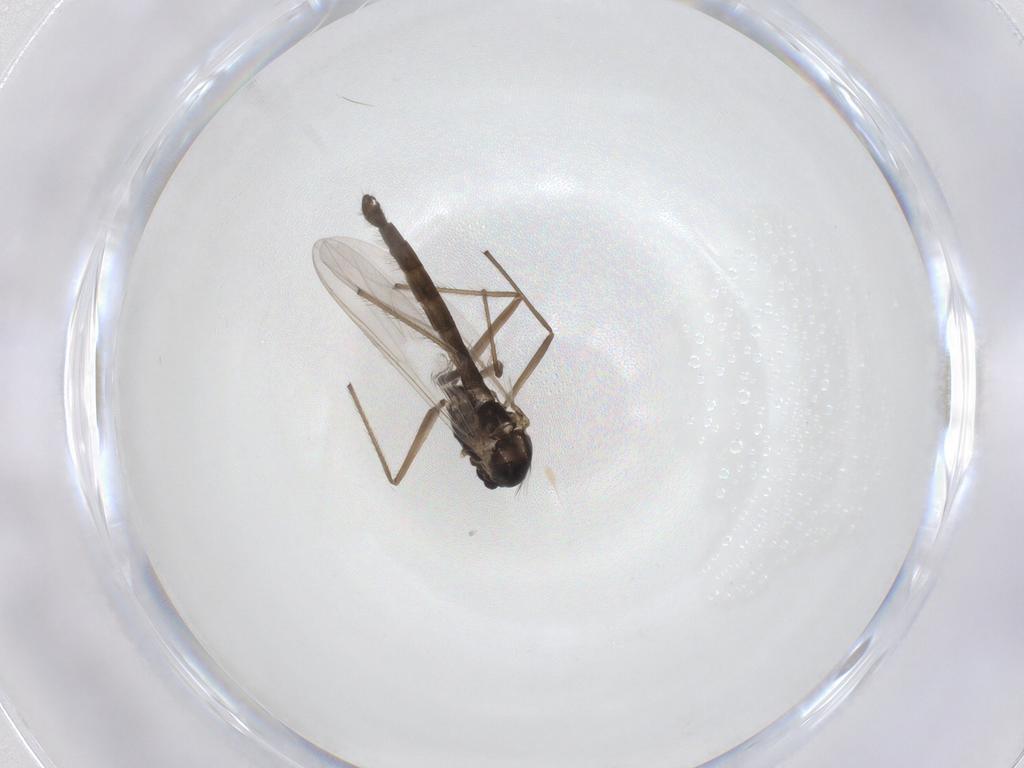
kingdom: Animalia
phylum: Arthropoda
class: Insecta
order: Diptera
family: Chironomidae
